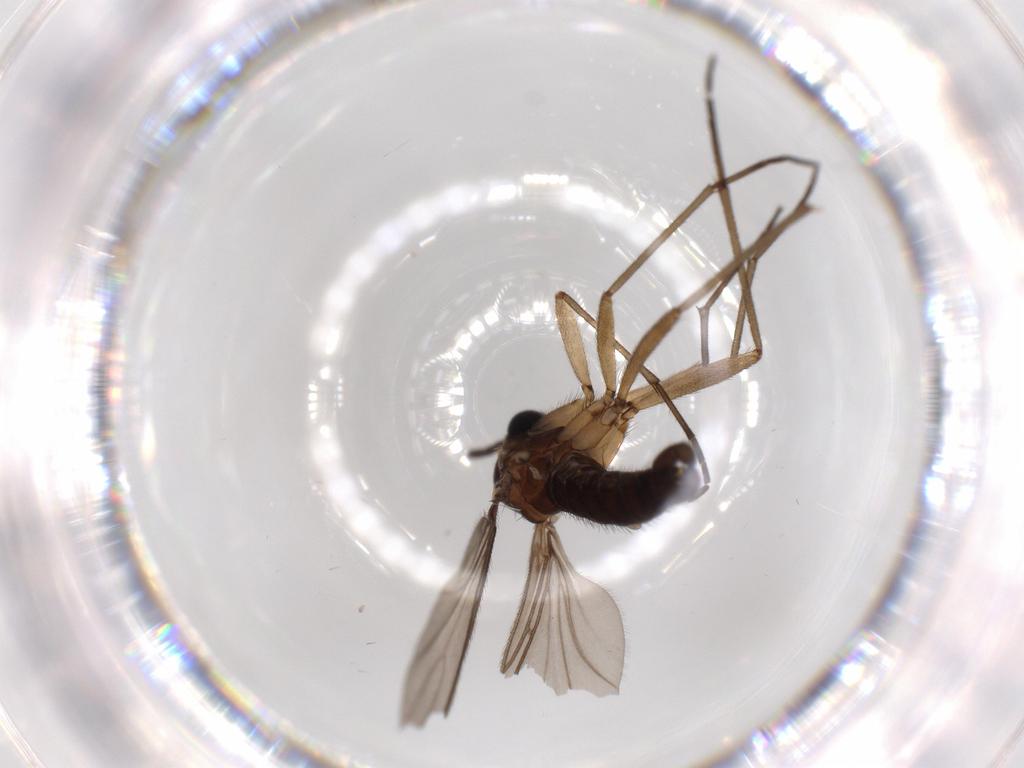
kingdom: Animalia
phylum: Arthropoda
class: Insecta
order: Diptera
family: Sciaridae
